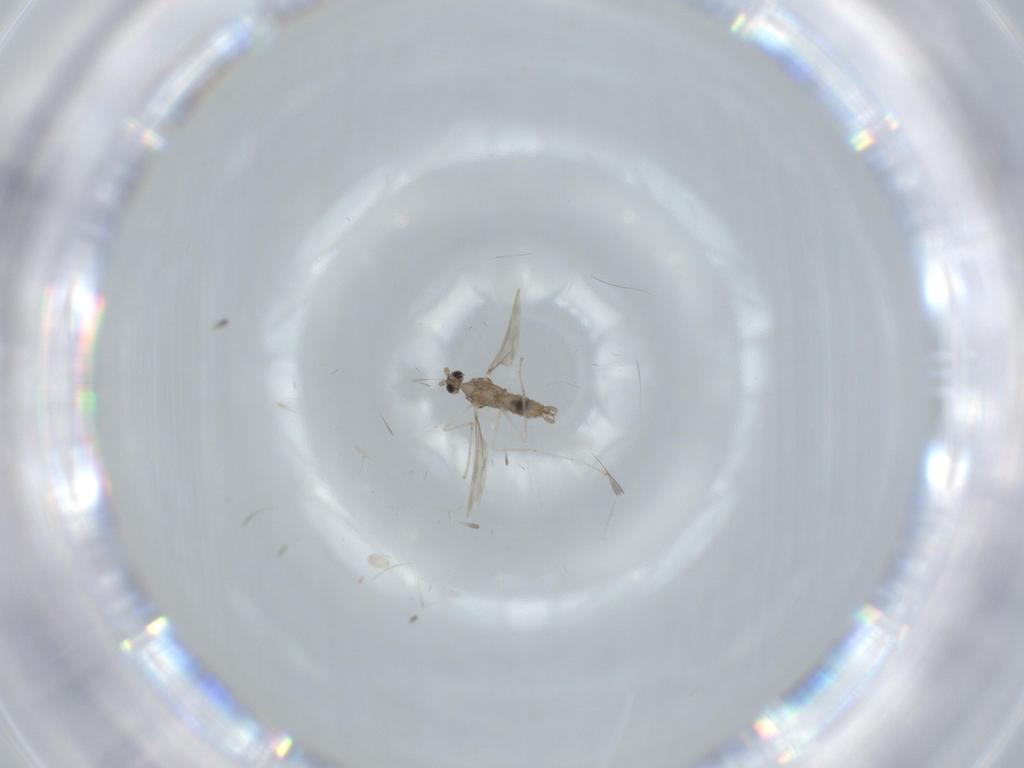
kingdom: Animalia
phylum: Arthropoda
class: Insecta
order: Diptera
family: Cecidomyiidae
